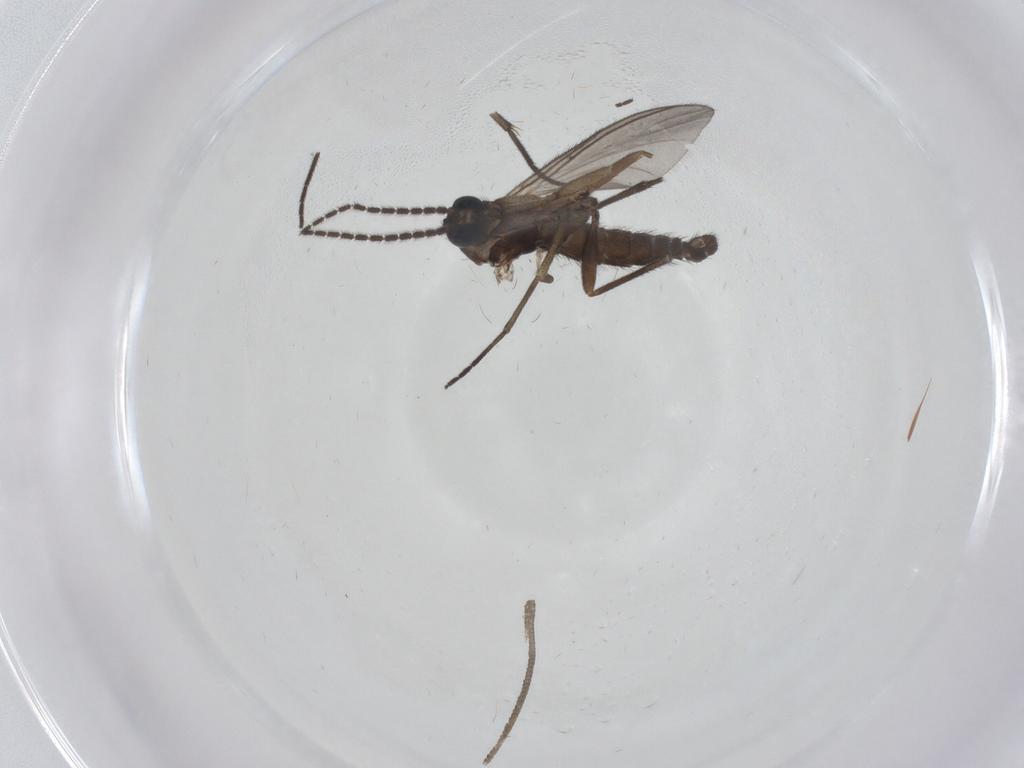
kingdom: Animalia
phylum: Arthropoda
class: Insecta
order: Diptera
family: Sciaridae
